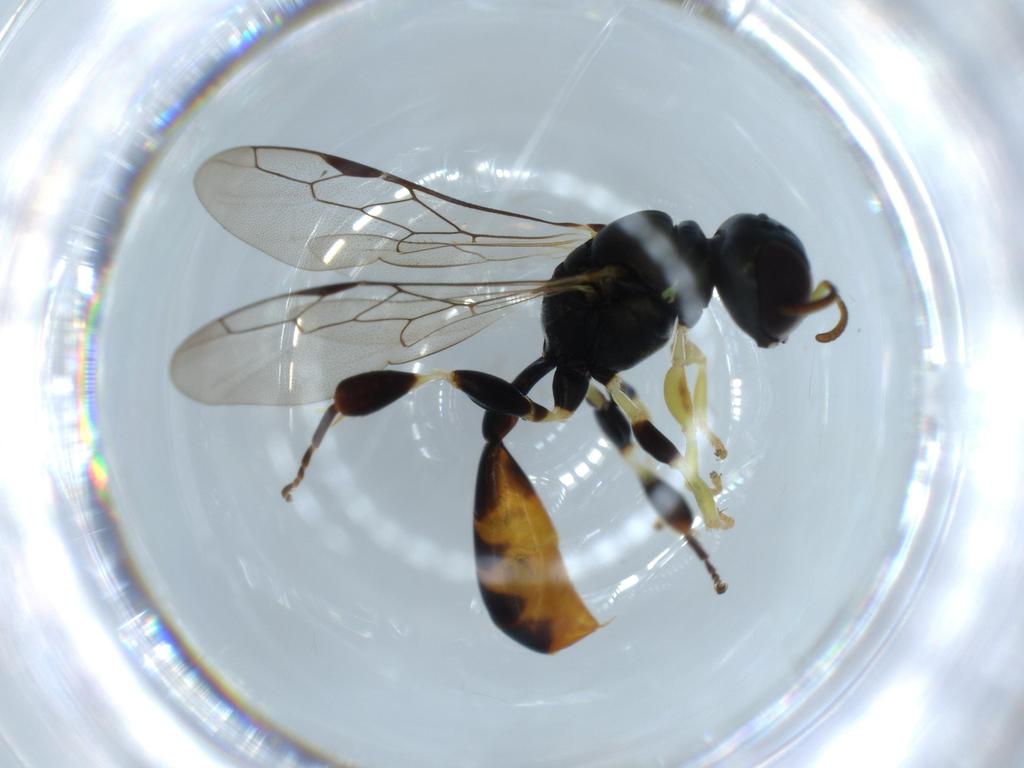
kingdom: Animalia
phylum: Arthropoda
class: Insecta
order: Hymenoptera
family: Crabronidae
